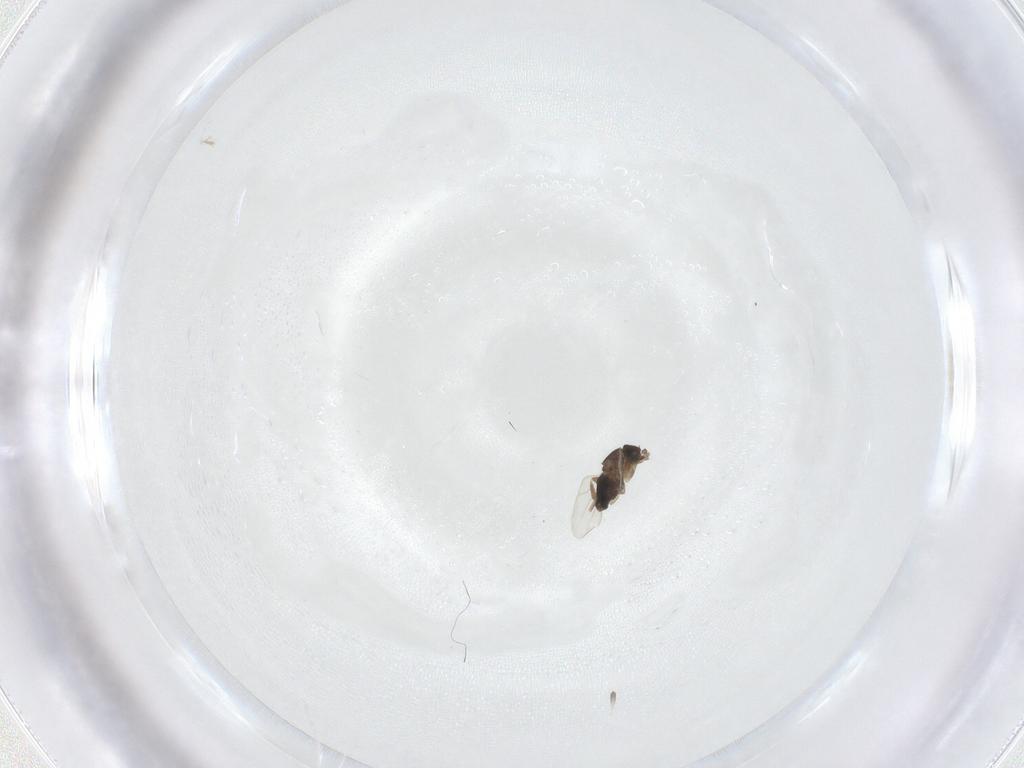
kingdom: Animalia
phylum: Arthropoda
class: Insecta
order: Diptera
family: Phoridae
